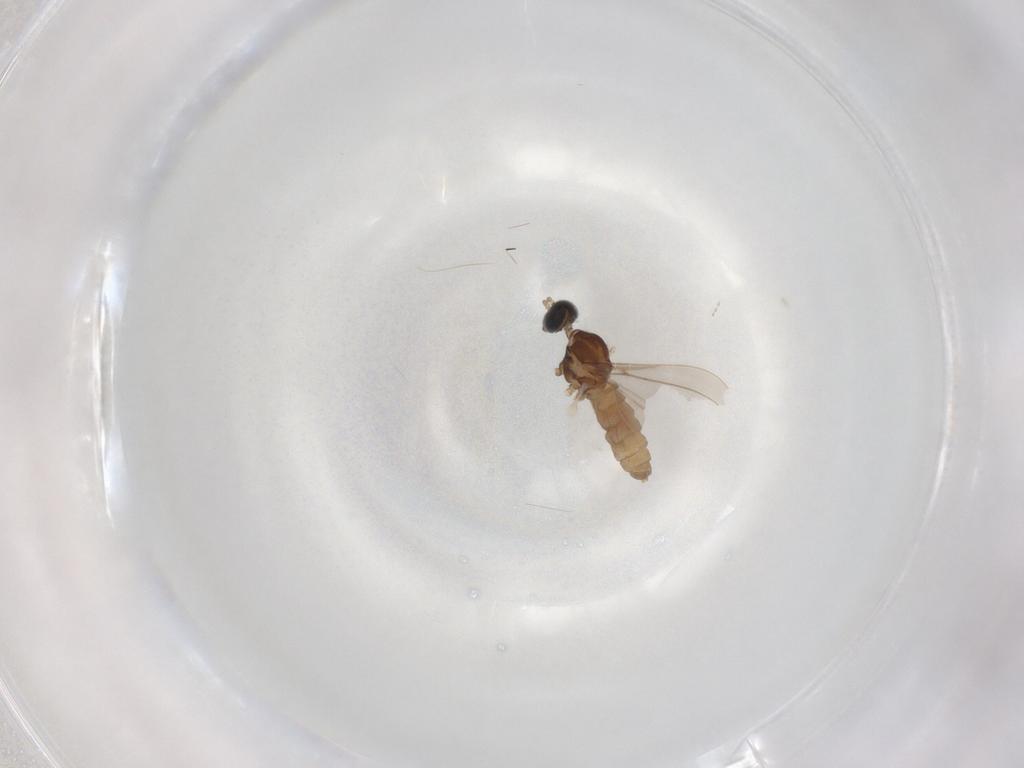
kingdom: Animalia
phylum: Arthropoda
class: Insecta
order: Diptera
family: Cecidomyiidae
